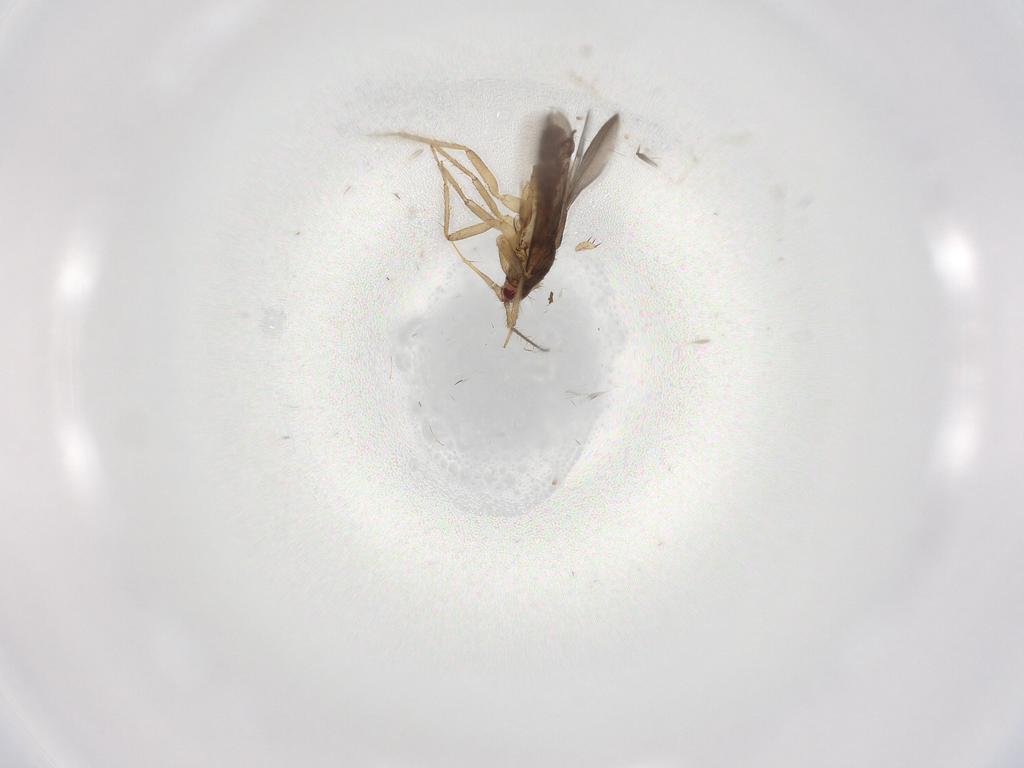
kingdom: Animalia
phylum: Arthropoda
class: Insecta
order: Hemiptera
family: Ceratocombidae
